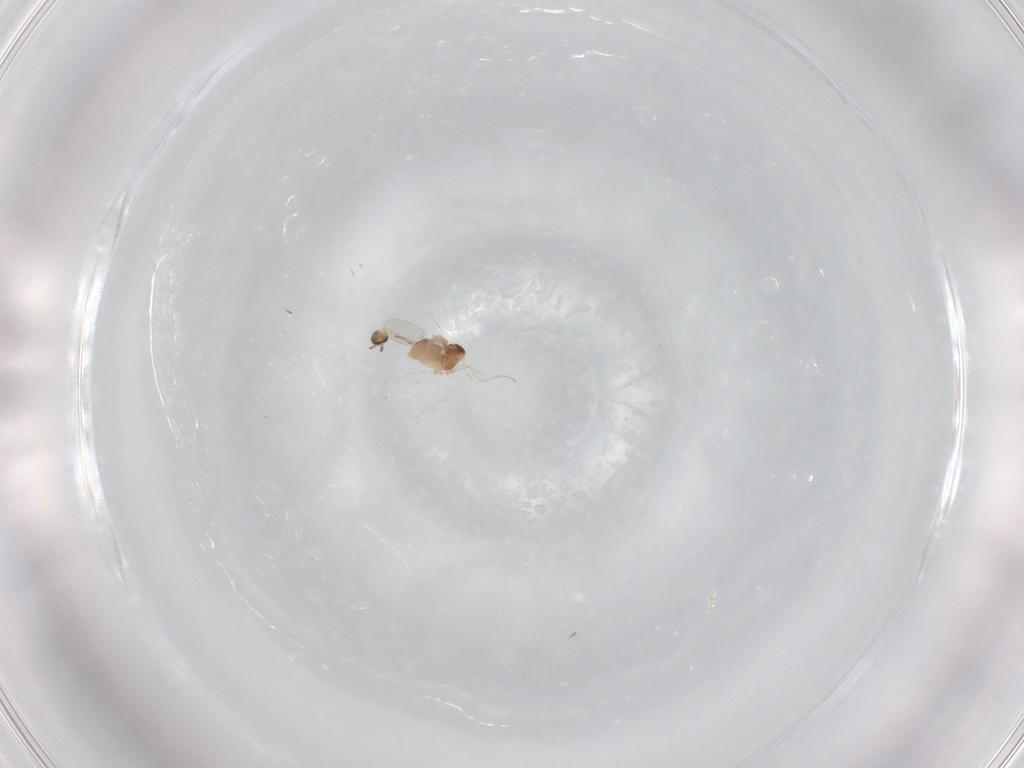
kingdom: Animalia
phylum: Arthropoda
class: Insecta
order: Diptera
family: Cecidomyiidae
